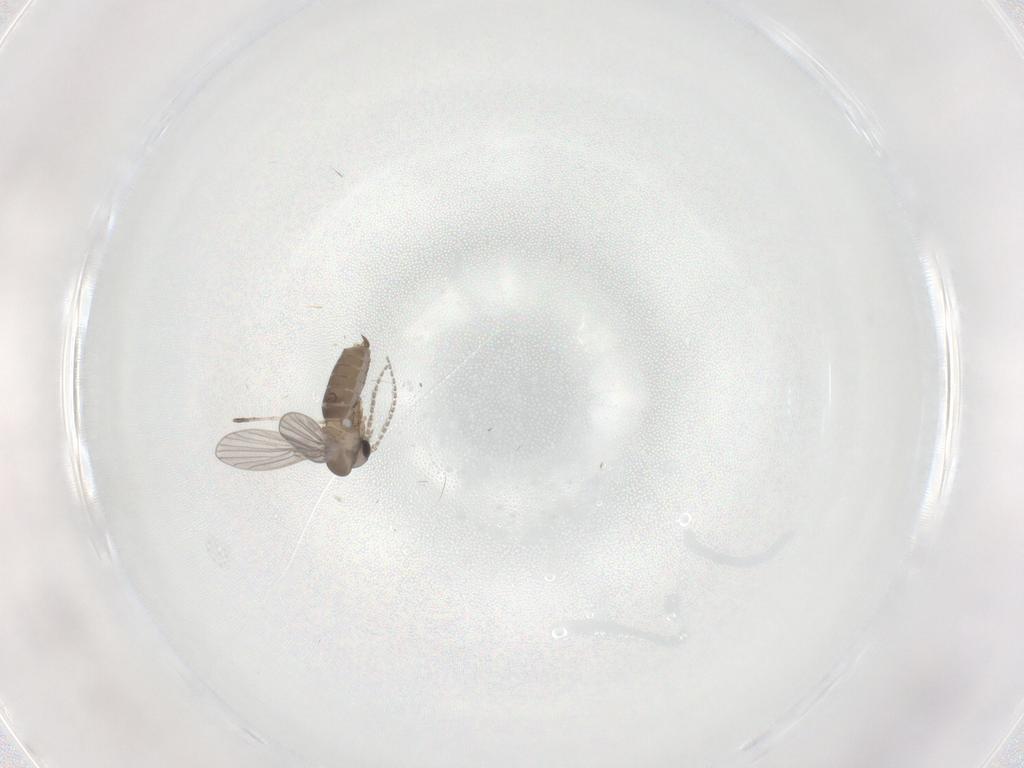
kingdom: Animalia
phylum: Arthropoda
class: Insecta
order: Diptera
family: Cecidomyiidae
